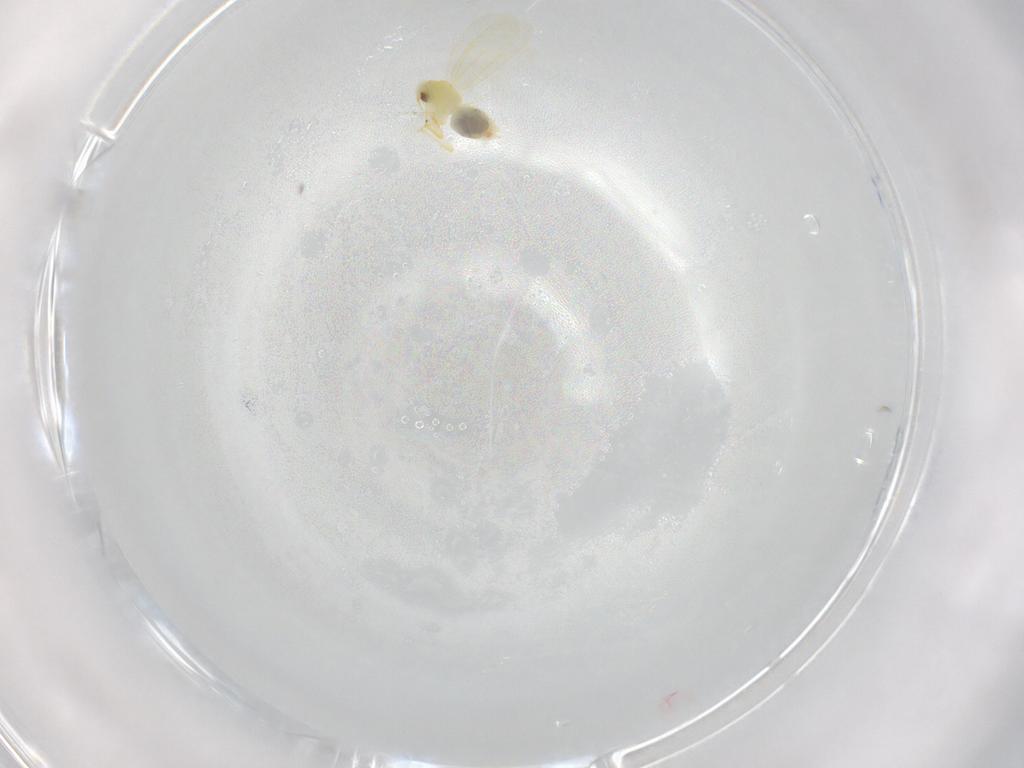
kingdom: Animalia
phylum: Arthropoda
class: Insecta
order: Hemiptera
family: Aleyrodidae
